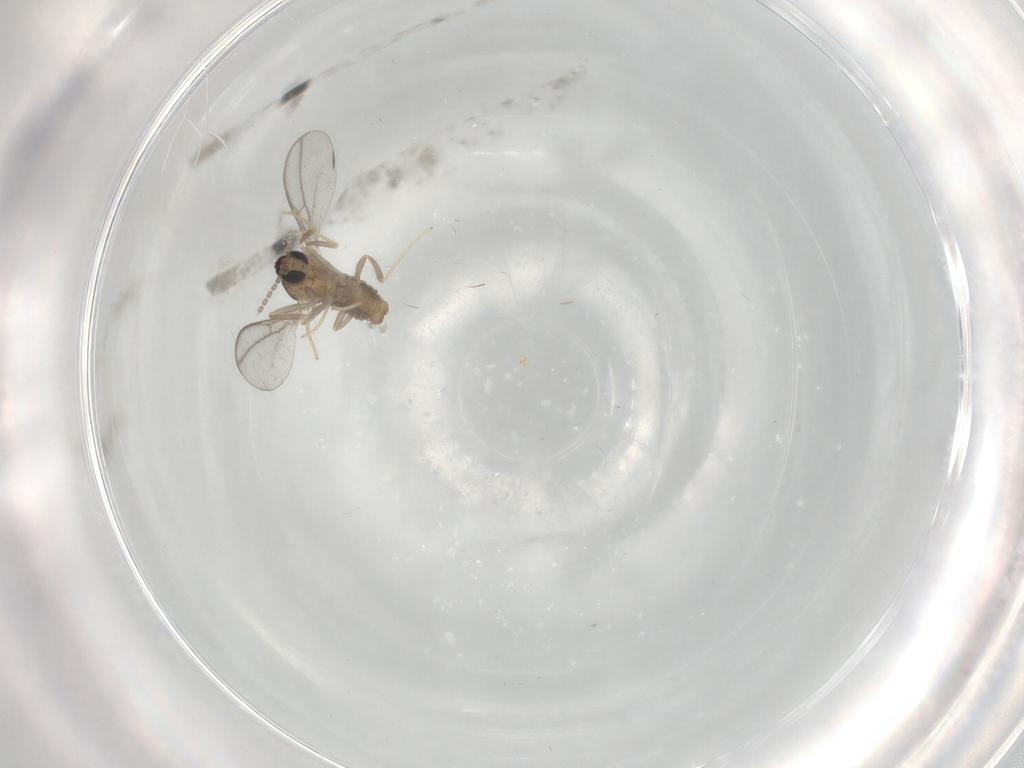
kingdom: Animalia
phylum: Arthropoda
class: Insecta
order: Diptera
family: Cecidomyiidae
